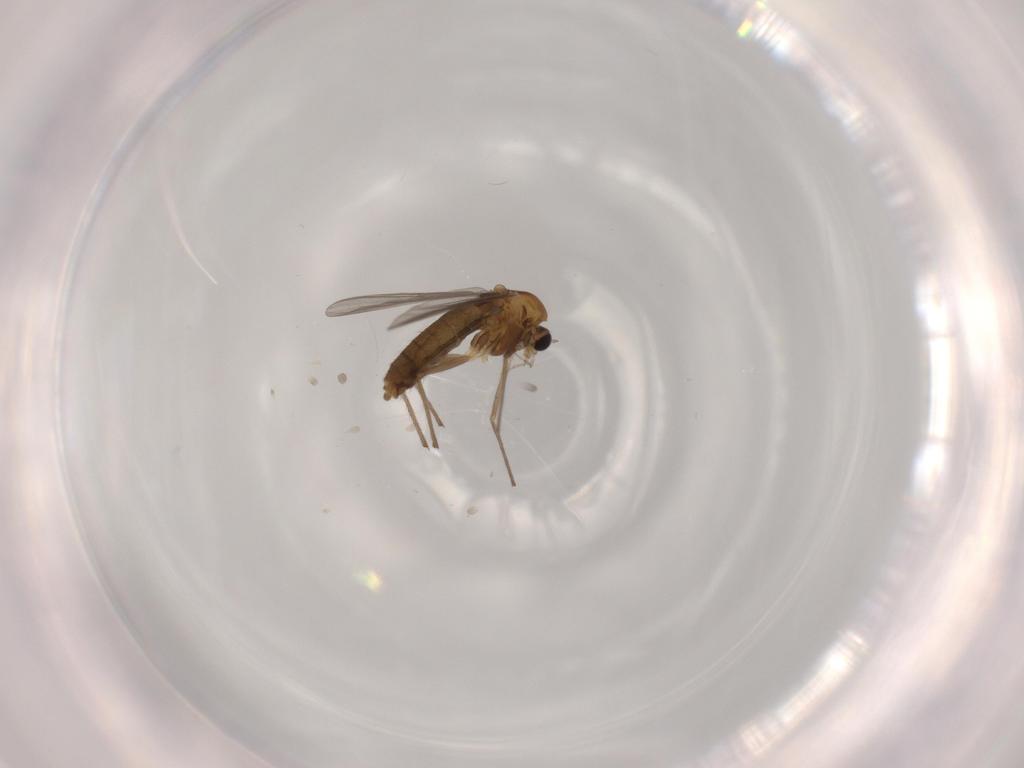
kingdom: Animalia
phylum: Arthropoda
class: Insecta
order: Diptera
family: Chironomidae
